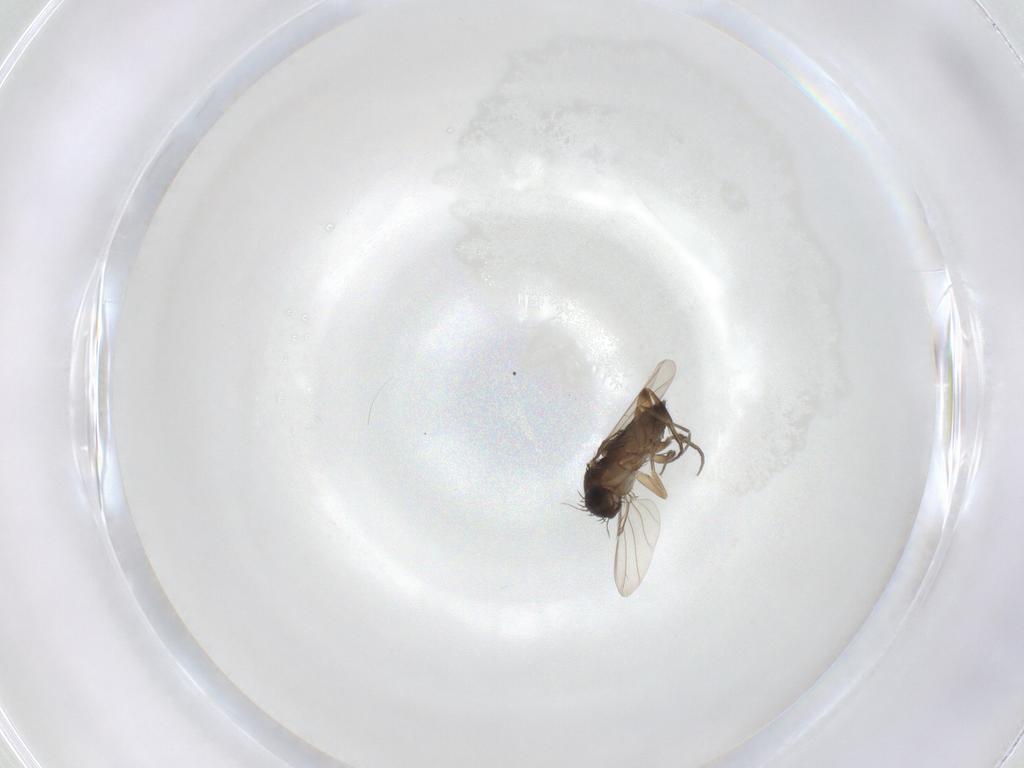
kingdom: Animalia
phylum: Arthropoda
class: Insecta
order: Diptera
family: Phoridae
